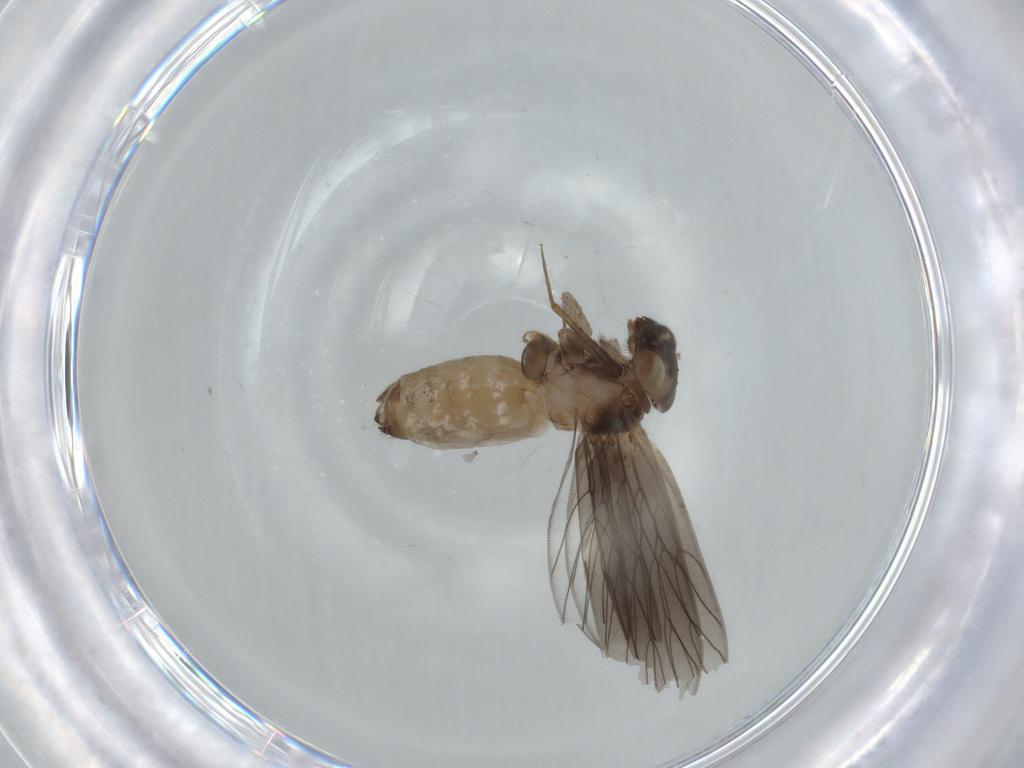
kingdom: Animalia
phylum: Arthropoda
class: Insecta
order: Psocodea
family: Lepidopsocidae
